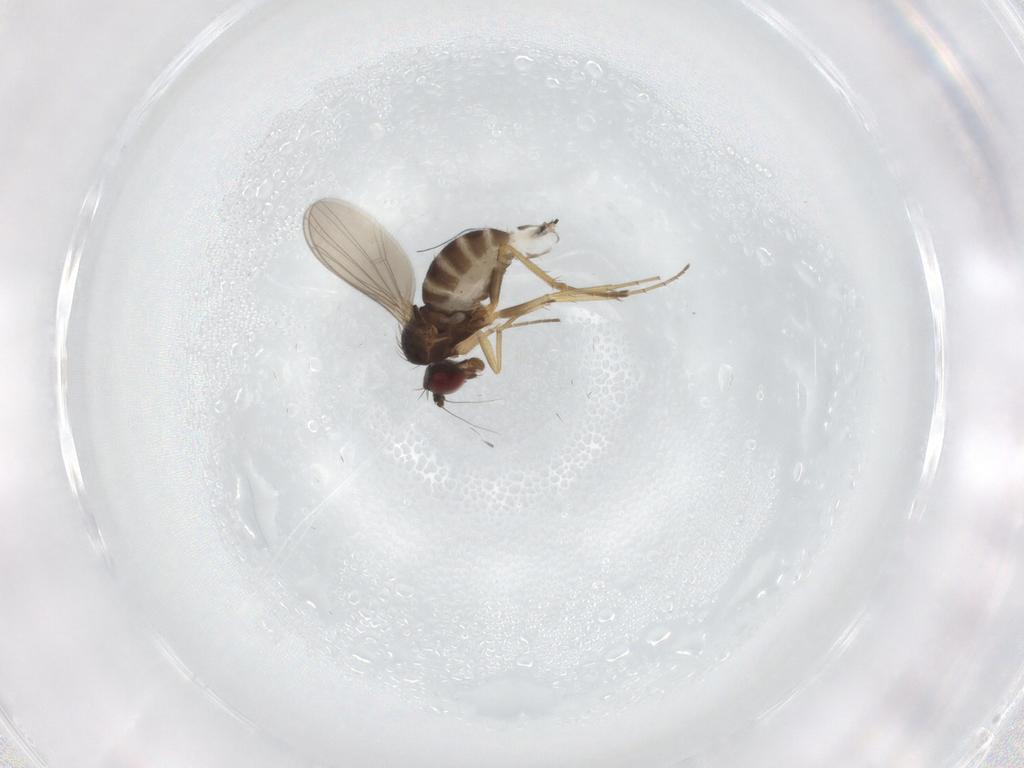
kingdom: Animalia
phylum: Arthropoda
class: Insecta
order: Diptera
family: Dolichopodidae
